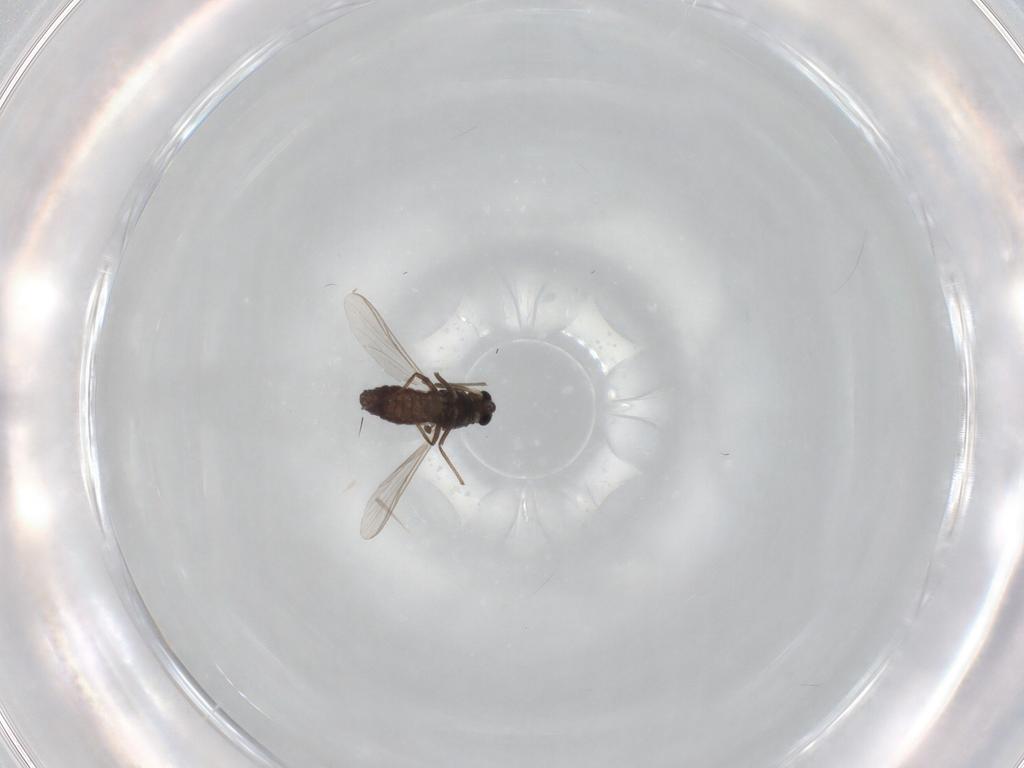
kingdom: Animalia
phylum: Arthropoda
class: Insecta
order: Diptera
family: Chironomidae
